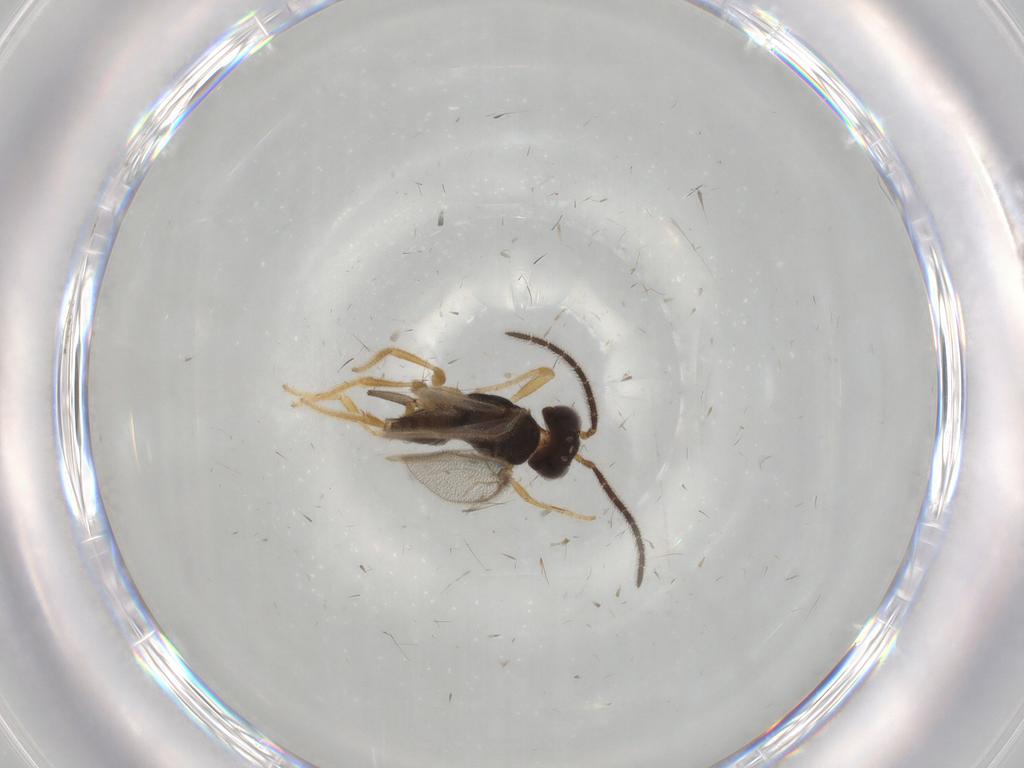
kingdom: Animalia
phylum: Arthropoda
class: Insecta
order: Hymenoptera
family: Dryinidae
